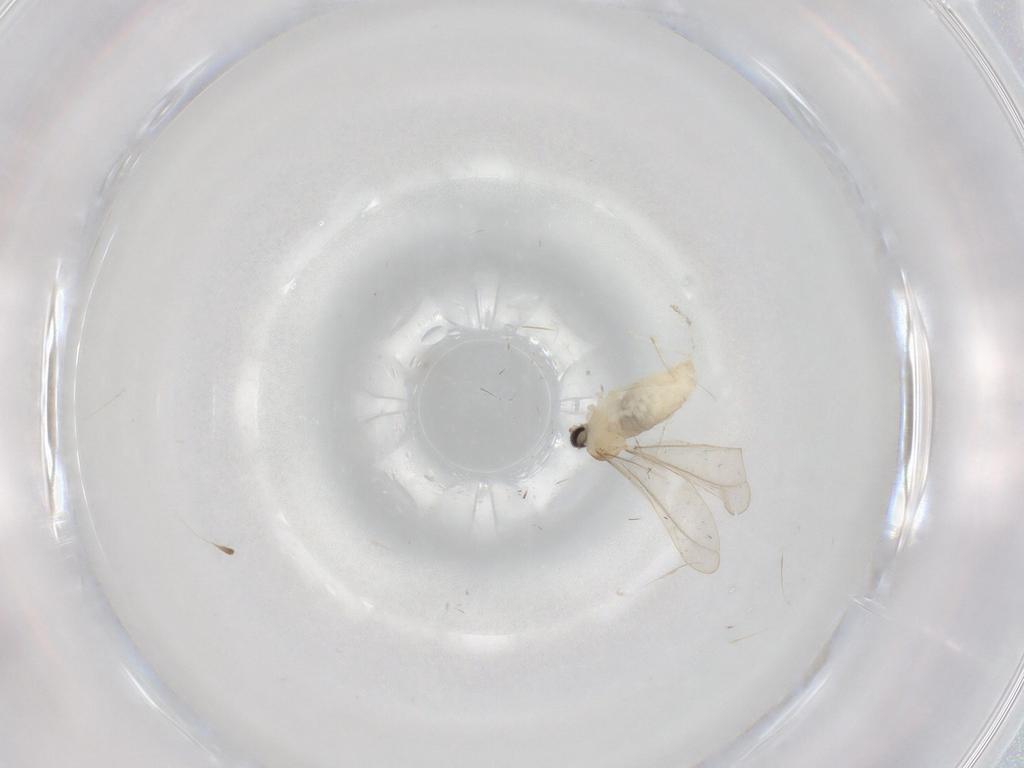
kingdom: Animalia
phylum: Arthropoda
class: Insecta
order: Diptera
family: Cecidomyiidae
